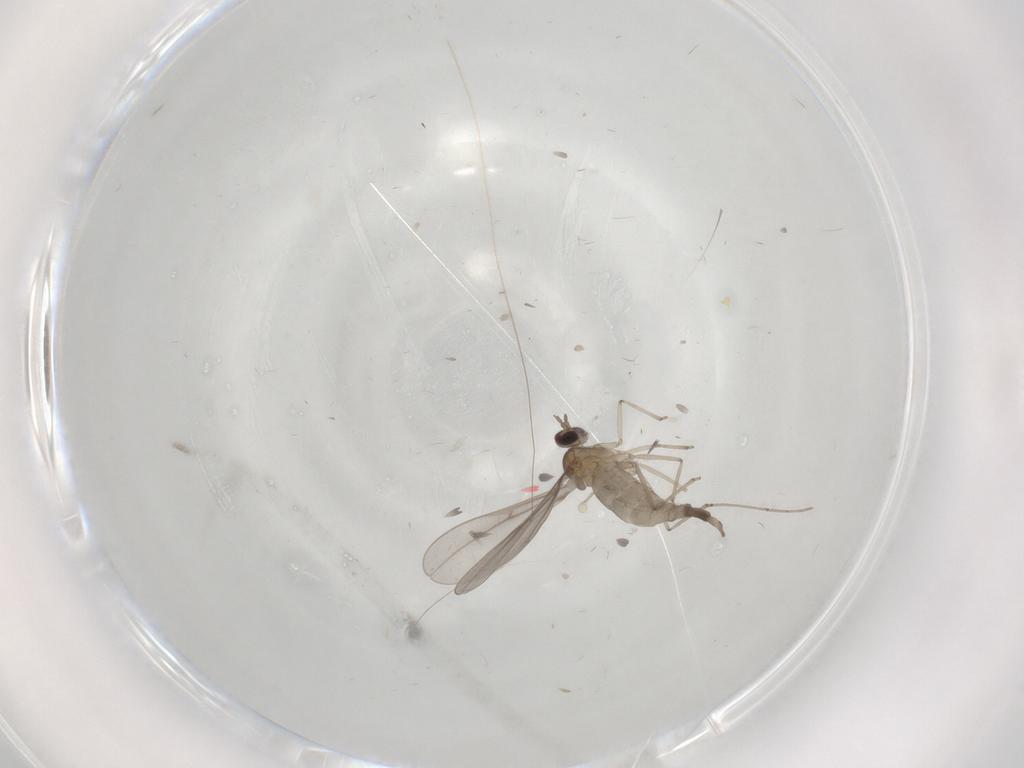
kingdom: Animalia
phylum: Arthropoda
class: Insecta
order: Diptera
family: Cecidomyiidae
